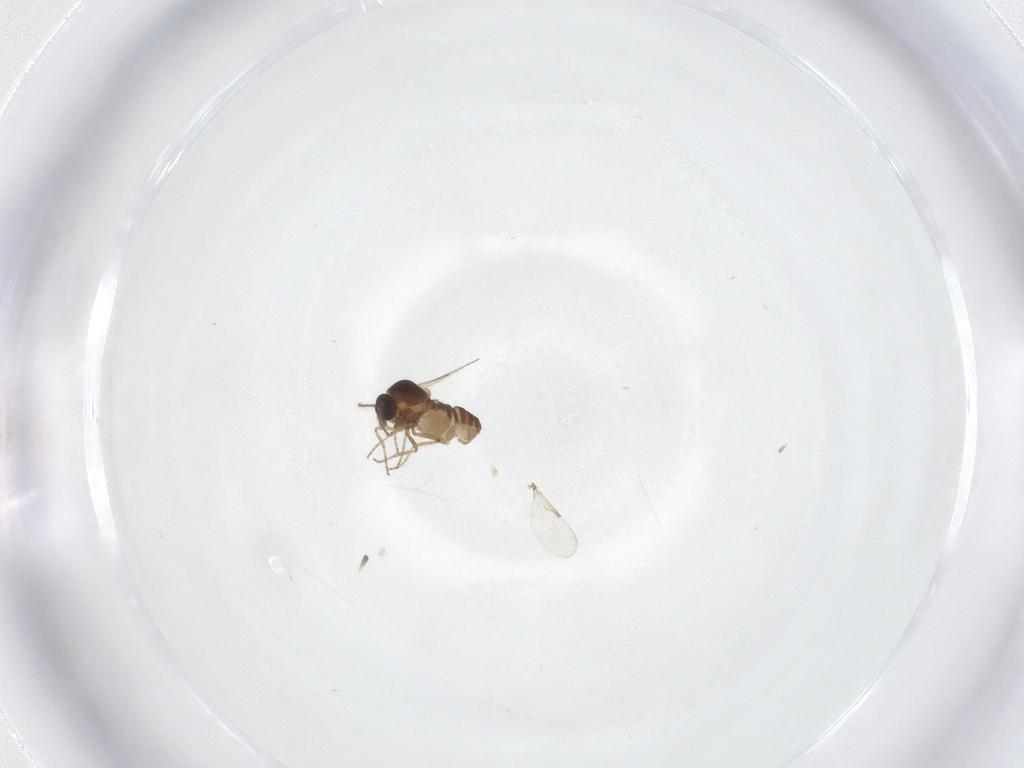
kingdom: Animalia
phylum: Arthropoda
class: Insecta
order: Diptera
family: Ceratopogonidae
